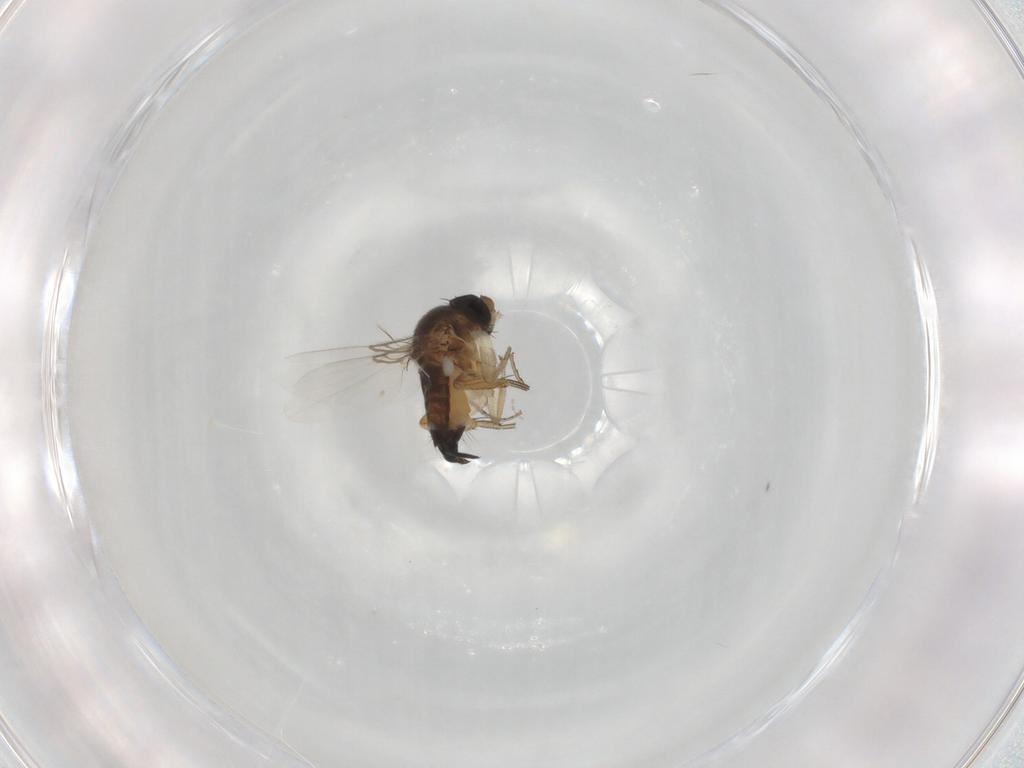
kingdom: Animalia
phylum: Arthropoda
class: Insecta
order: Diptera
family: Phoridae
